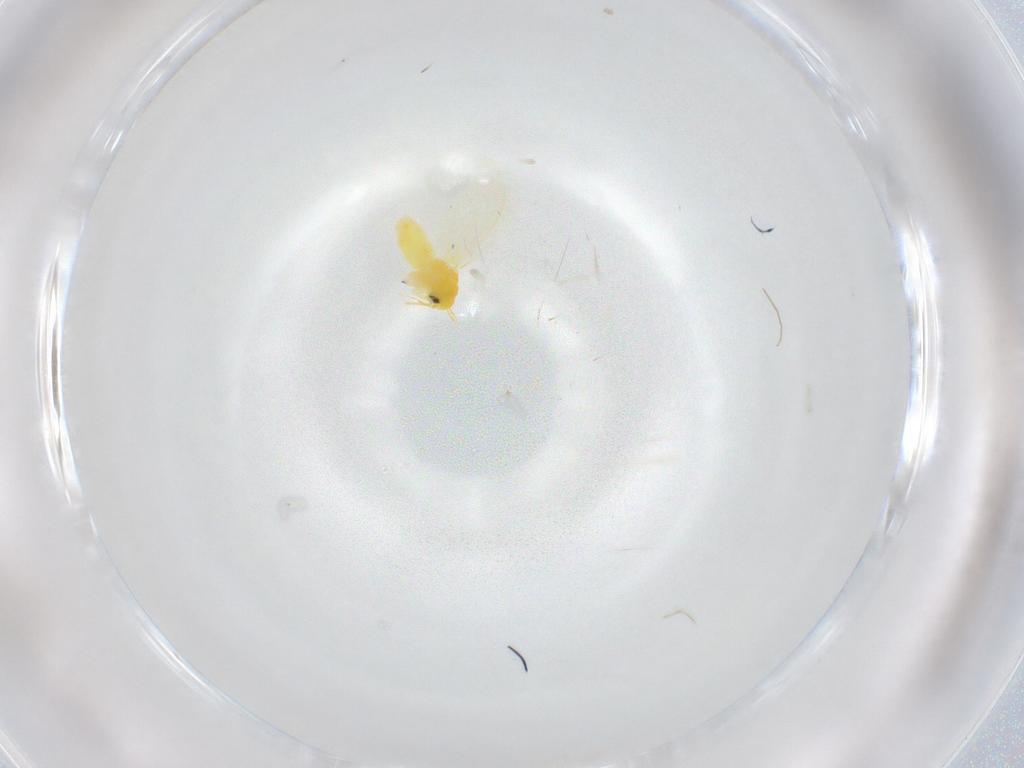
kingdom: Animalia
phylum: Arthropoda
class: Insecta
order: Hemiptera
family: Aleyrodidae
